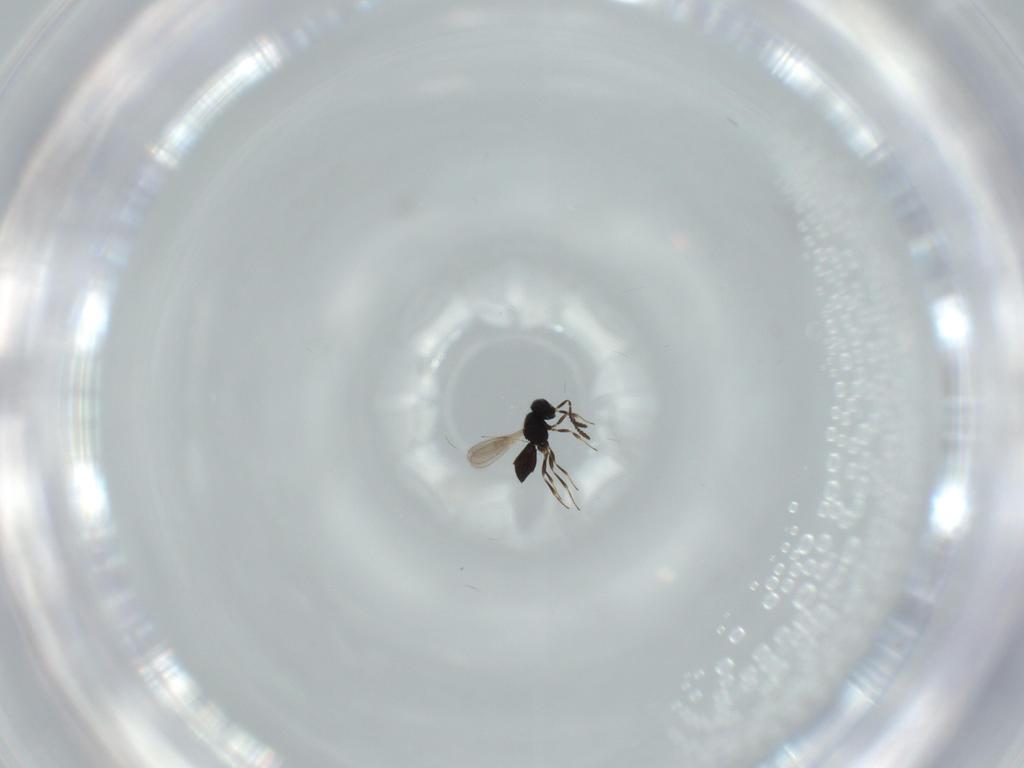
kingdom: Animalia
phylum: Arthropoda
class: Insecta
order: Hymenoptera
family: Scelionidae
